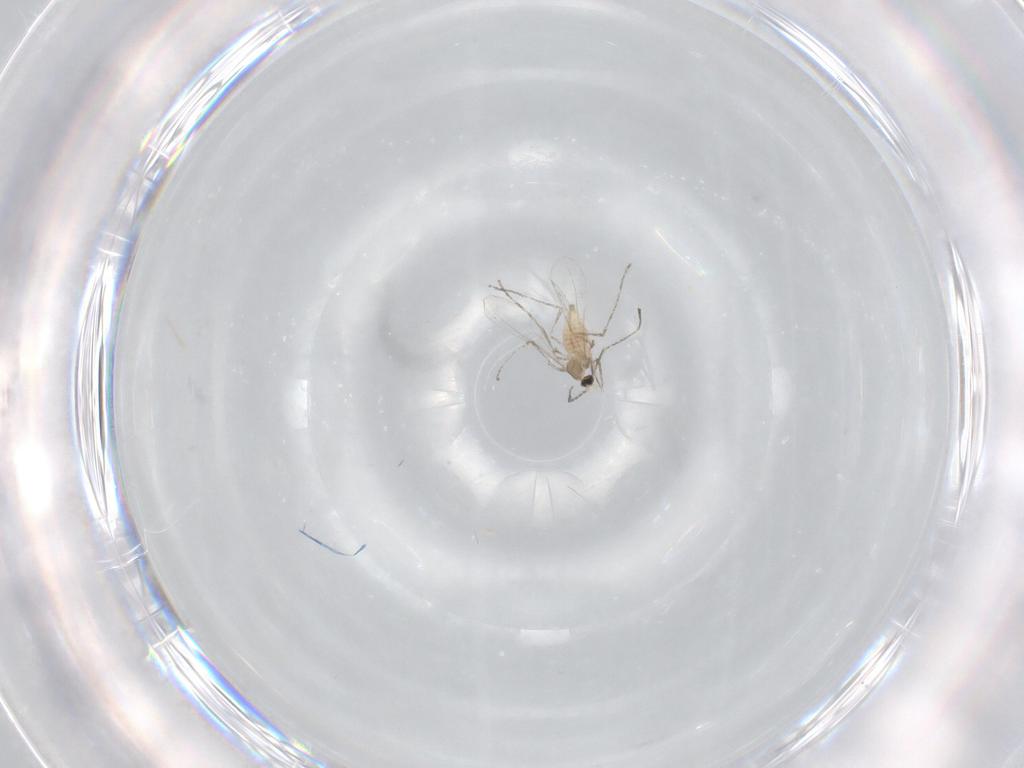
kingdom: Animalia
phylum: Arthropoda
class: Insecta
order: Diptera
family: Cecidomyiidae
